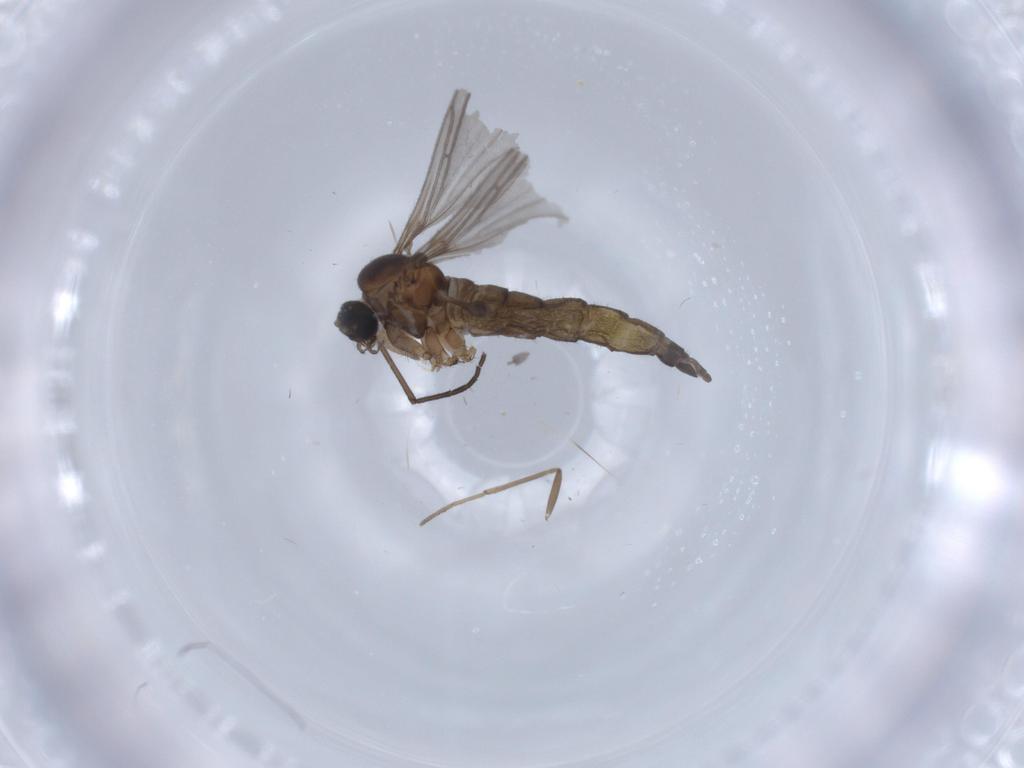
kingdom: Animalia
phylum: Arthropoda
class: Insecta
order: Diptera
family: Sciaridae
